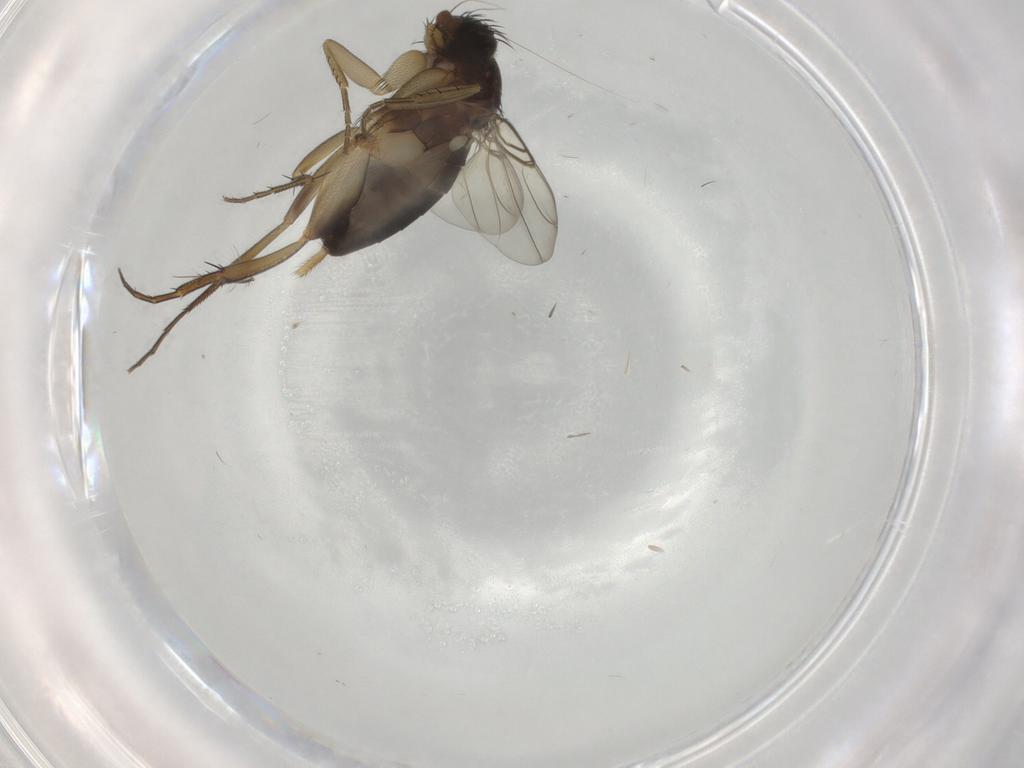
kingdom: Animalia
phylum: Arthropoda
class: Insecta
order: Diptera
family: Phoridae
